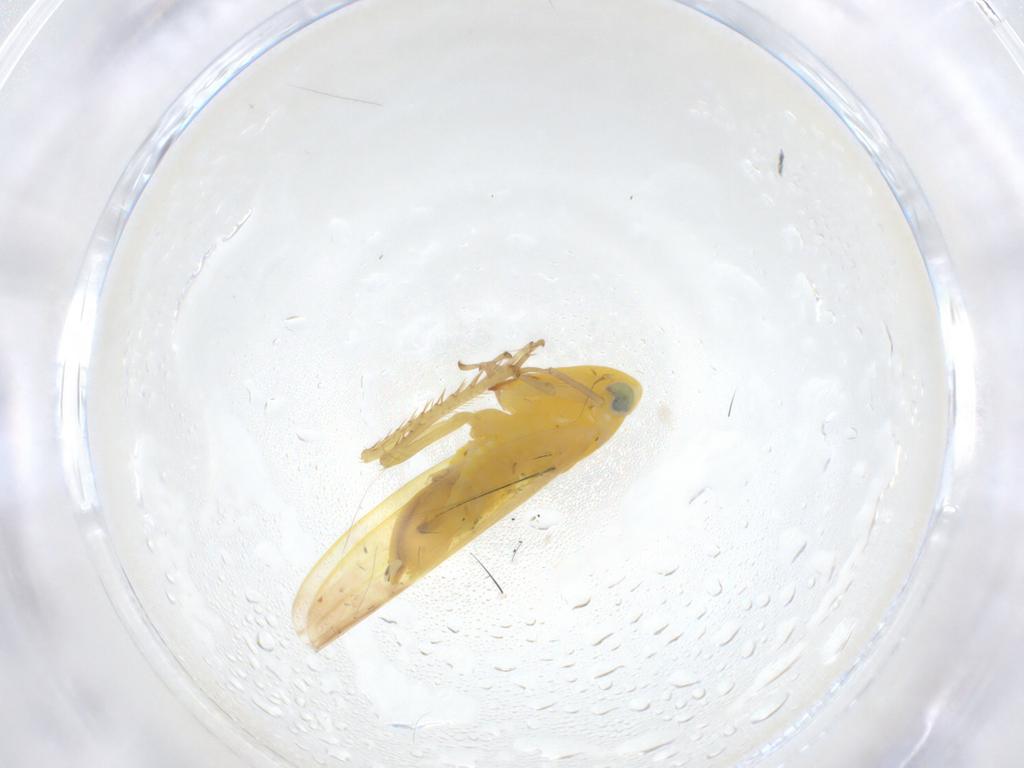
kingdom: Animalia
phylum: Arthropoda
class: Insecta
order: Hemiptera
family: Cicadellidae
